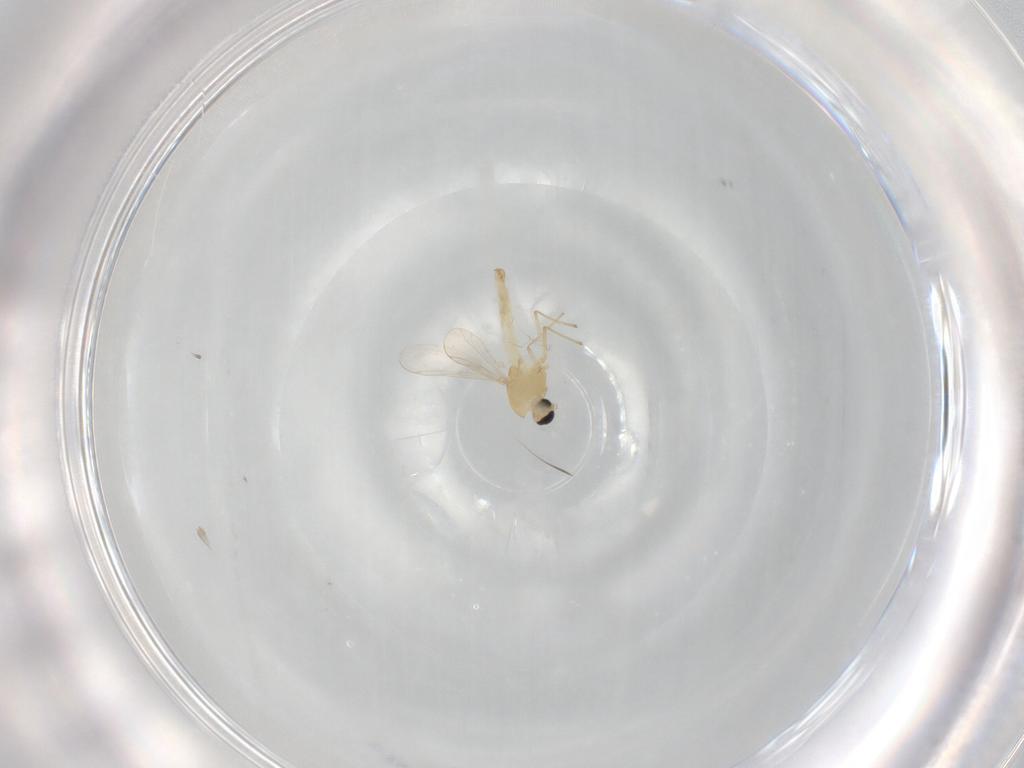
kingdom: Animalia
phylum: Arthropoda
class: Insecta
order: Diptera
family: Chironomidae
